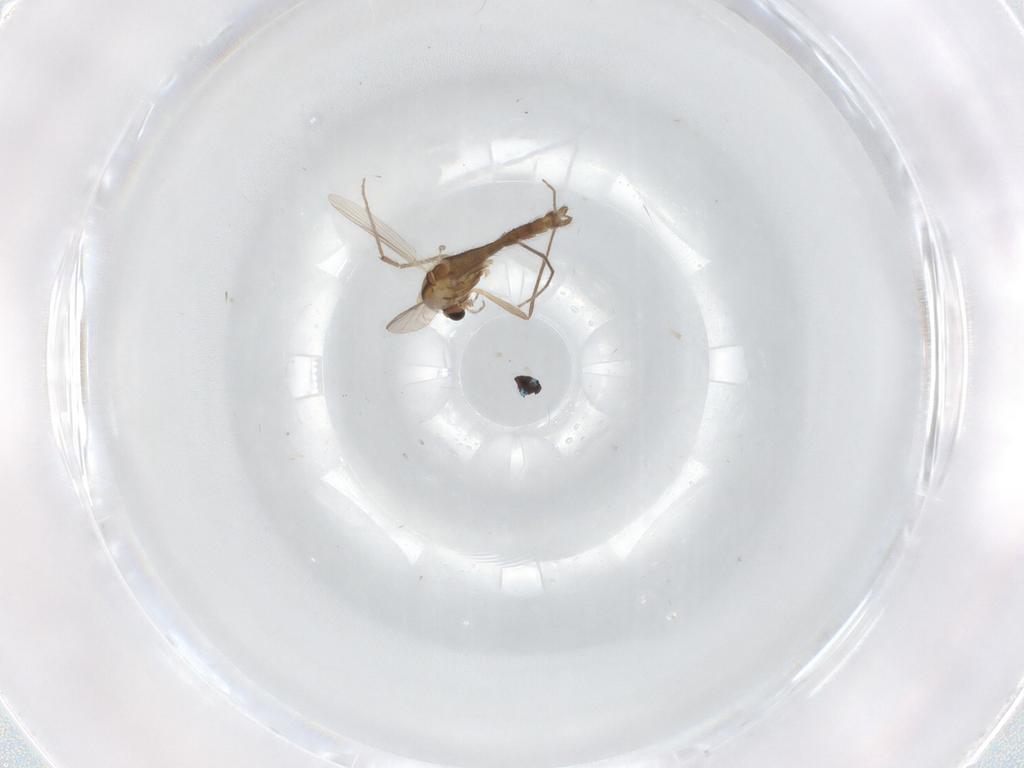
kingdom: Animalia
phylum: Arthropoda
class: Insecta
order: Diptera
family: Chironomidae
